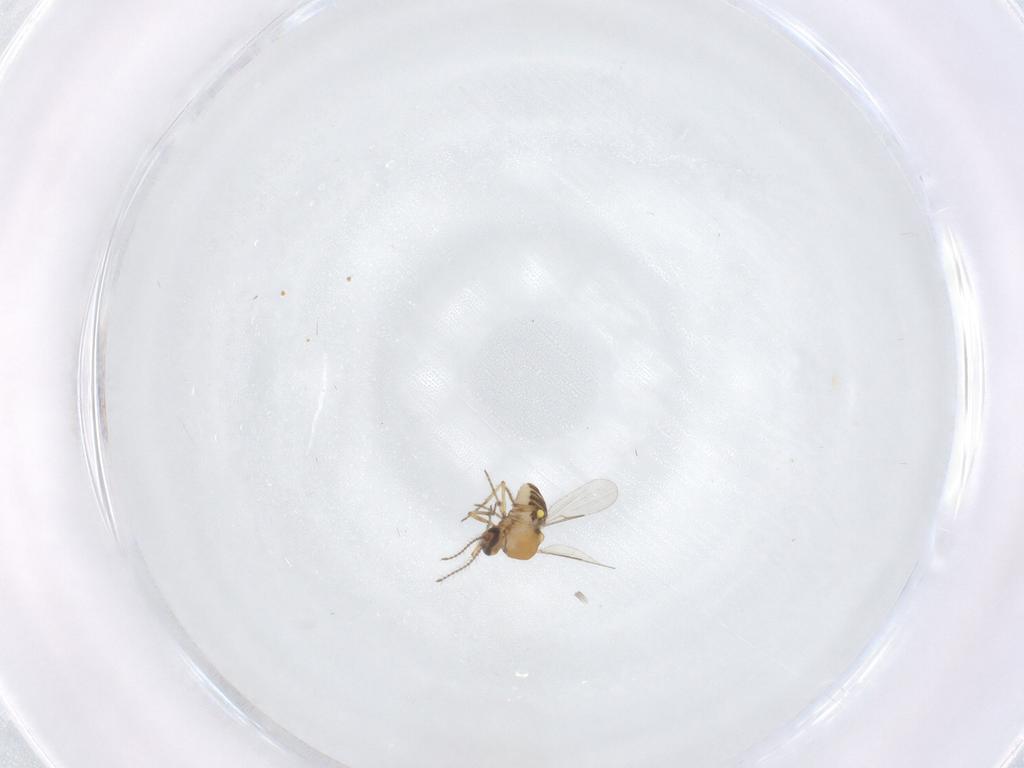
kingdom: Animalia
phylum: Arthropoda
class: Insecta
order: Diptera
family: Ceratopogonidae
